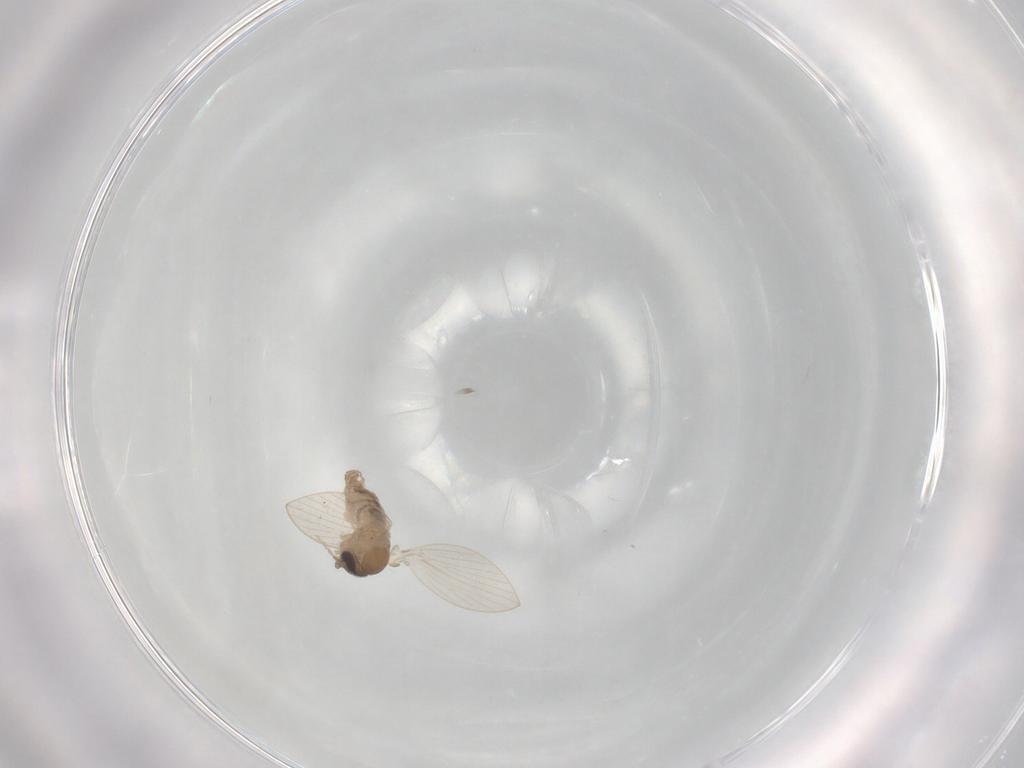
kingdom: Animalia
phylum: Arthropoda
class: Insecta
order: Diptera
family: Psychodidae
